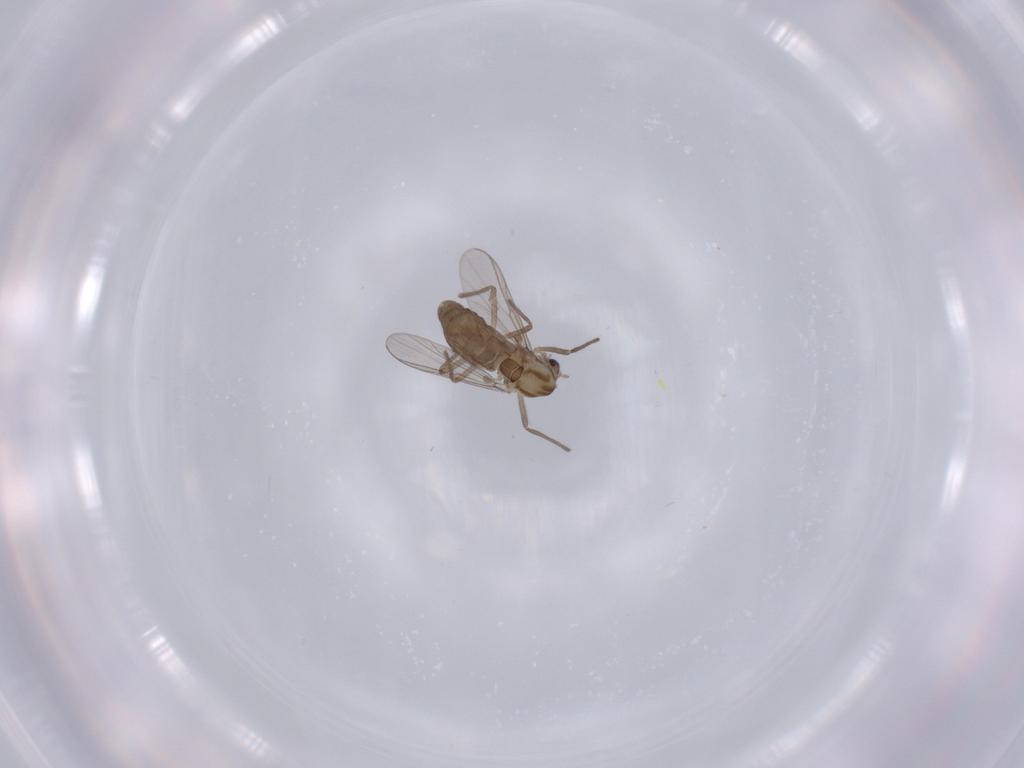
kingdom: Animalia
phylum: Arthropoda
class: Insecta
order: Diptera
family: Chironomidae
